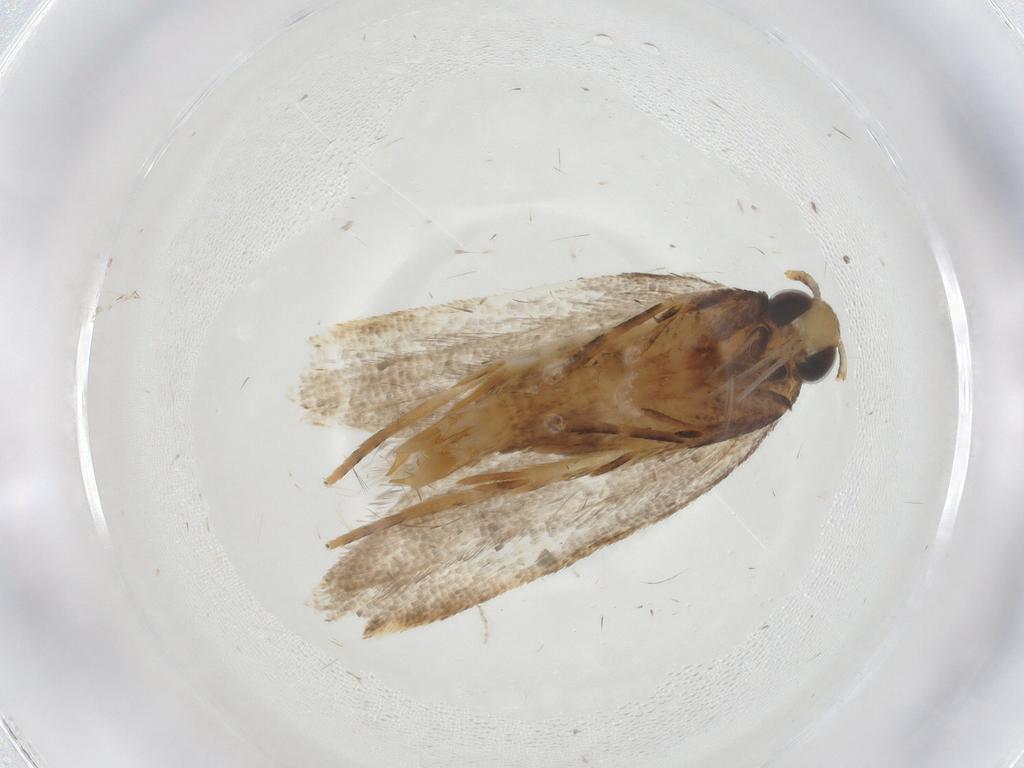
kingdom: Animalia
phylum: Arthropoda
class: Insecta
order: Lepidoptera
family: Oecophoridae
